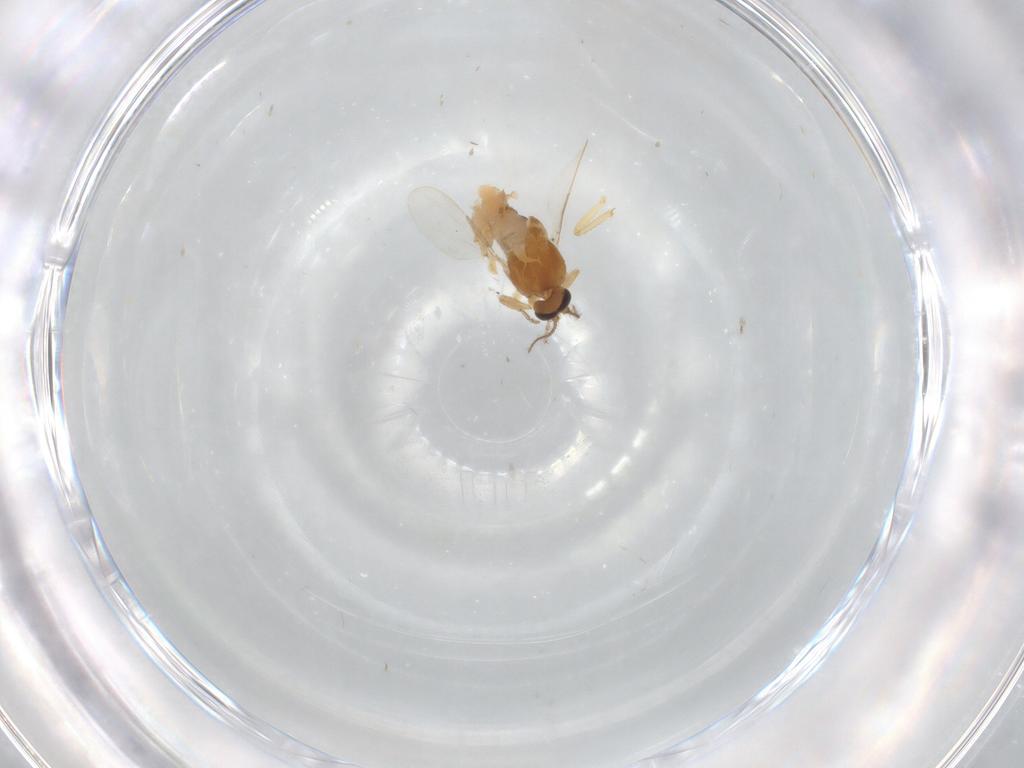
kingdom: Animalia
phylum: Arthropoda
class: Insecta
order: Diptera
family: Ceratopogonidae
